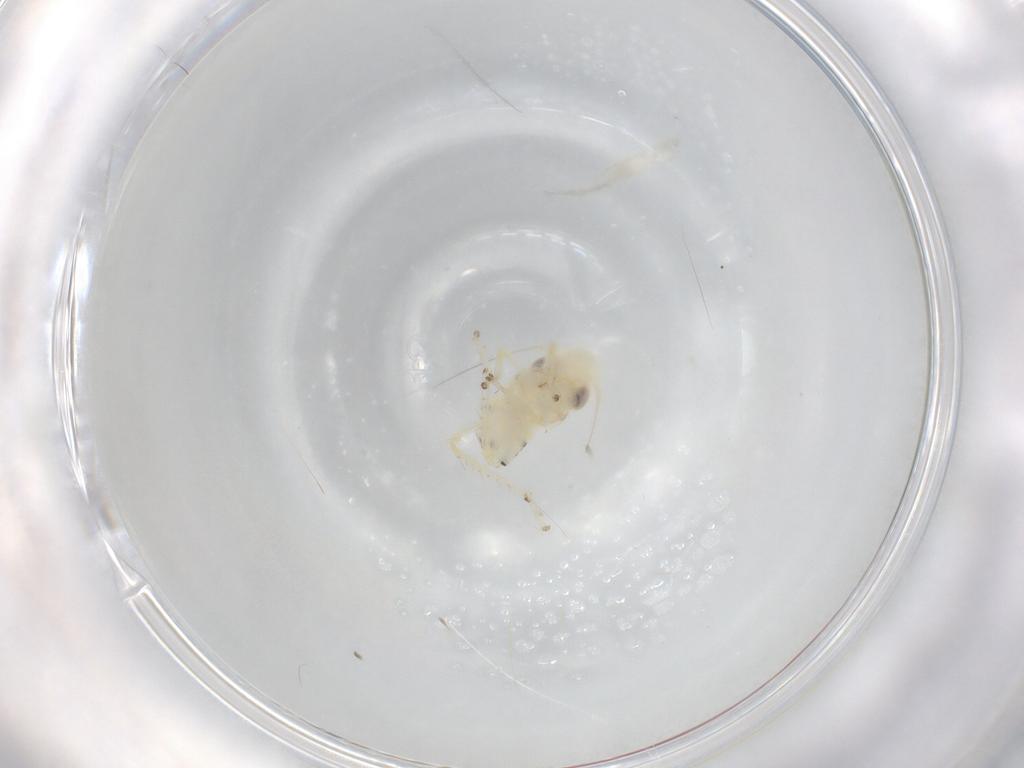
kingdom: Animalia
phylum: Arthropoda
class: Insecta
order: Hemiptera
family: Cicadellidae
